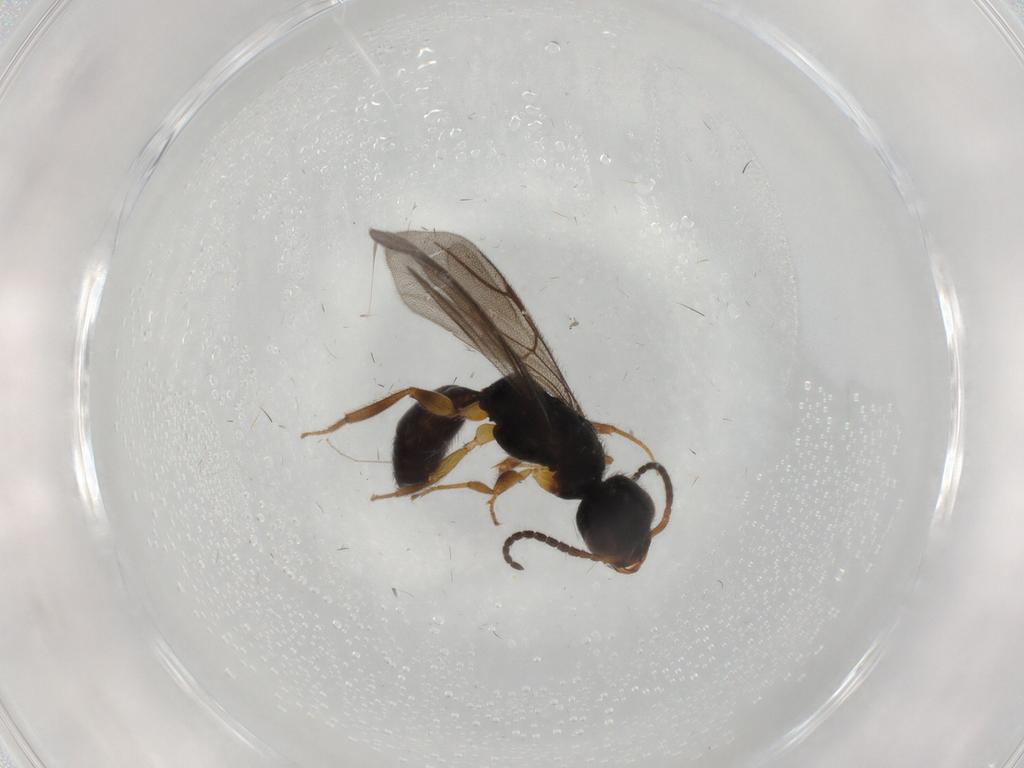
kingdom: Animalia
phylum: Arthropoda
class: Insecta
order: Hymenoptera
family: Bethylidae
